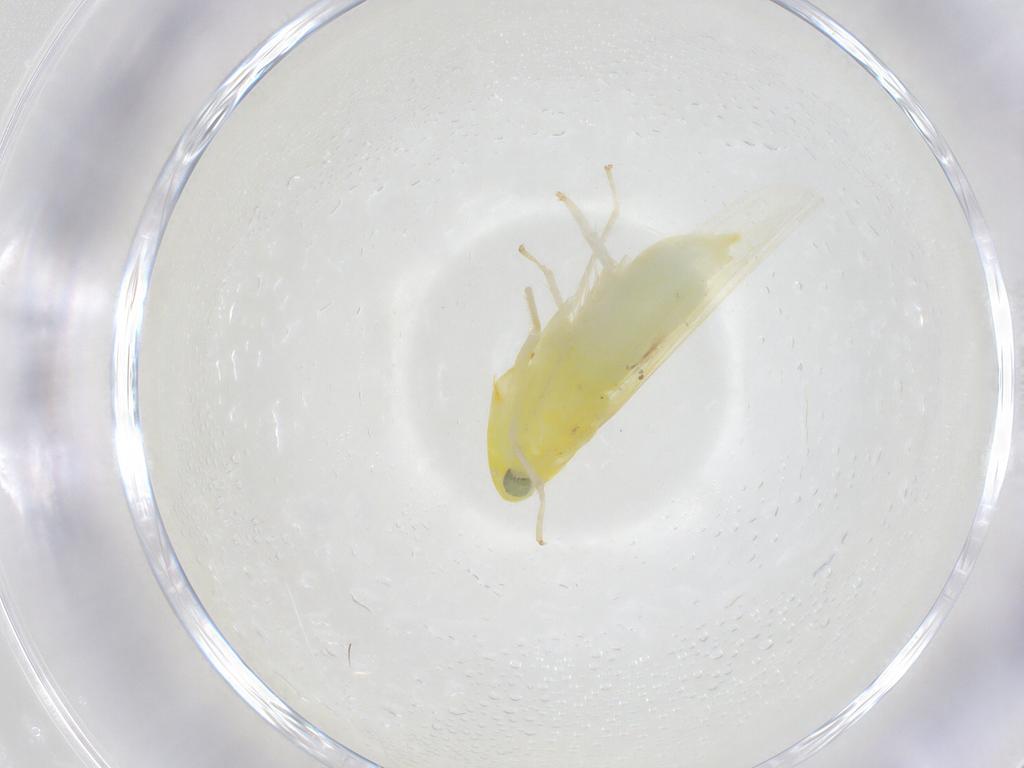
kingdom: Animalia
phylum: Arthropoda
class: Insecta
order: Hemiptera
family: Cicadellidae
